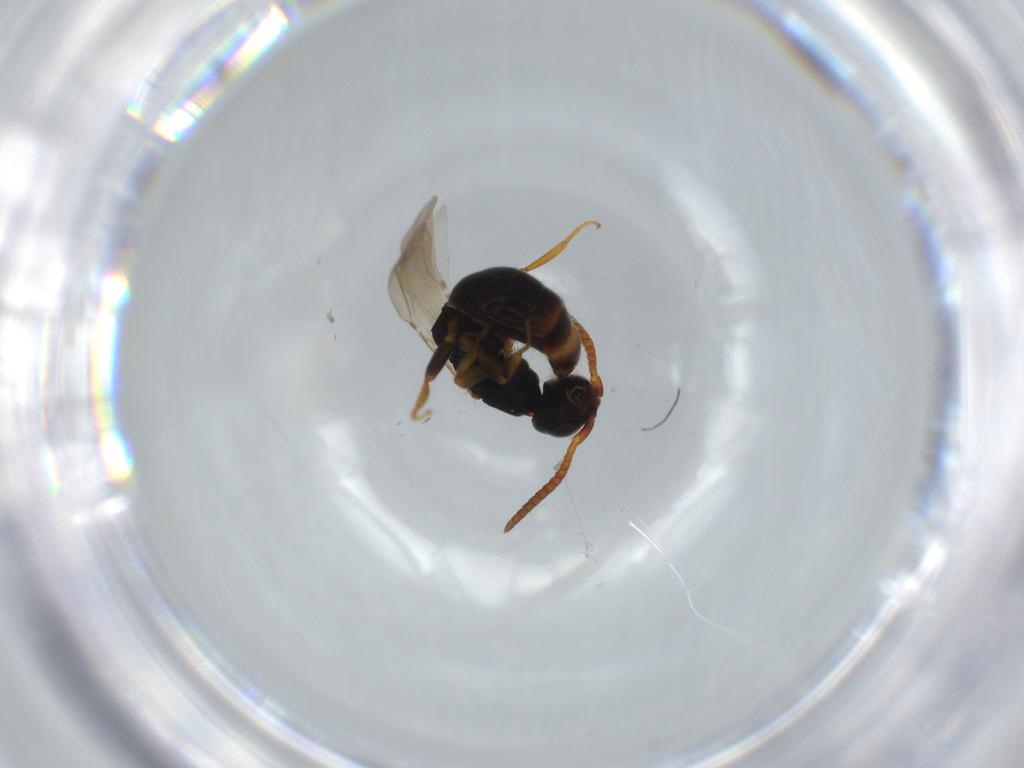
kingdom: Animalia
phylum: Arthropoda
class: Insecta
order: Hymenoptera
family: Bethylidae
